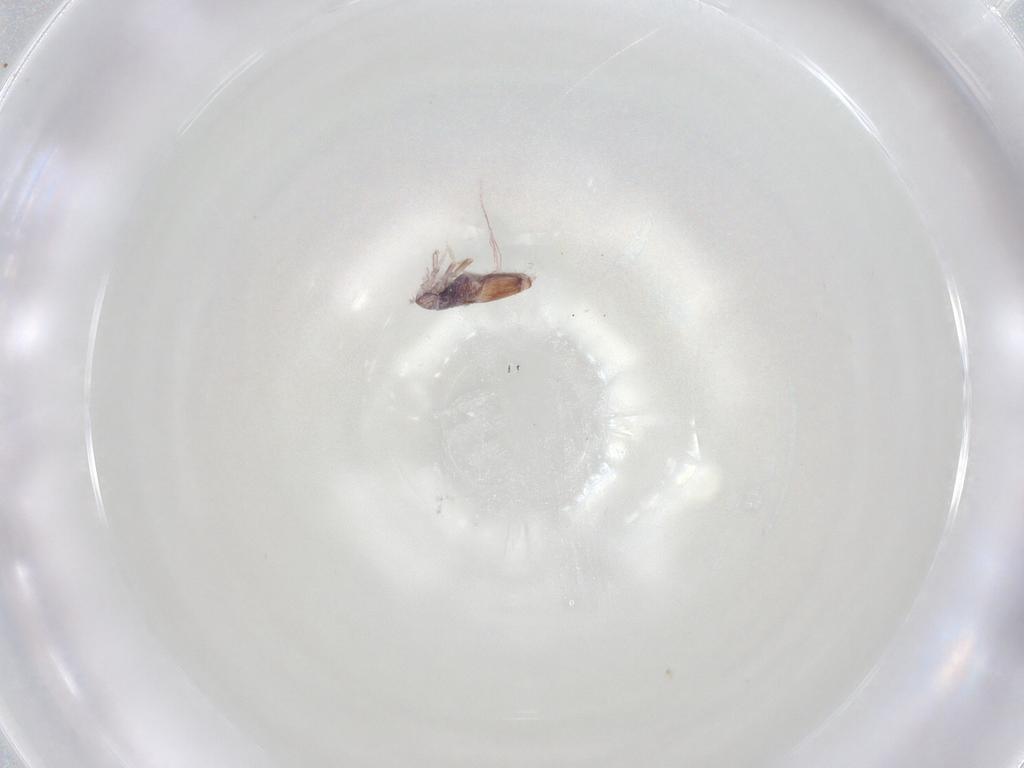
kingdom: Animalia
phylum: Arthropoda
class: Collembola
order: Entomobryomorpha
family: Entomobryidae
